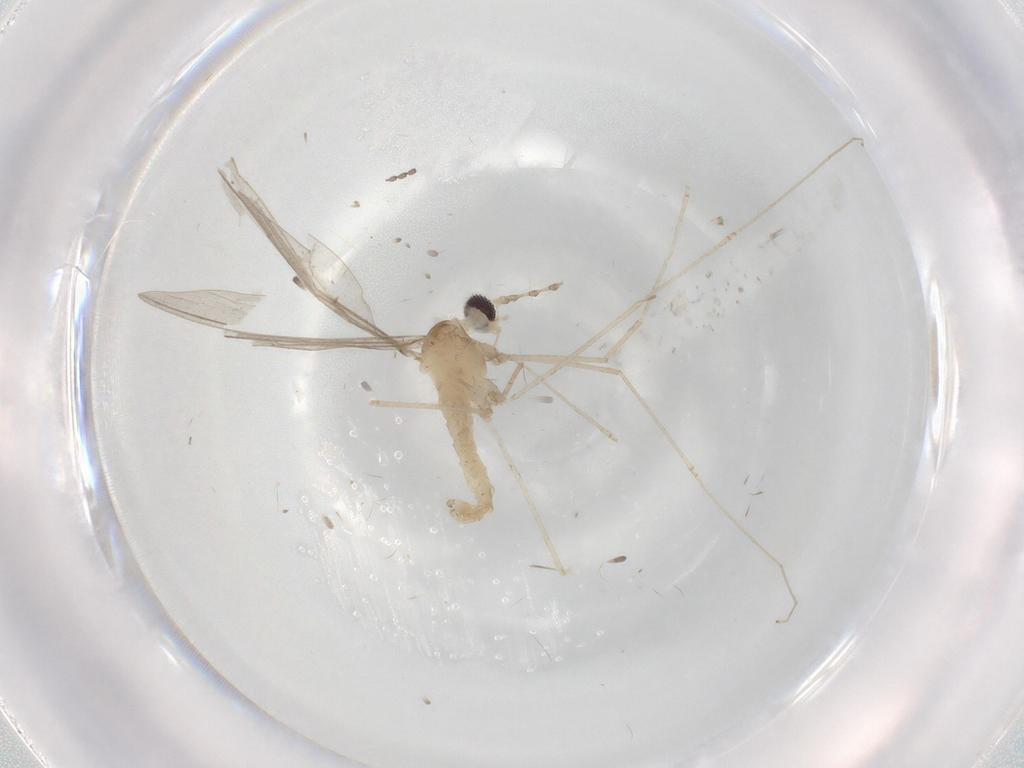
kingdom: Animalia
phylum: Arthropoda
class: Insecta
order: Diptera
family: Cecidomyiidae
